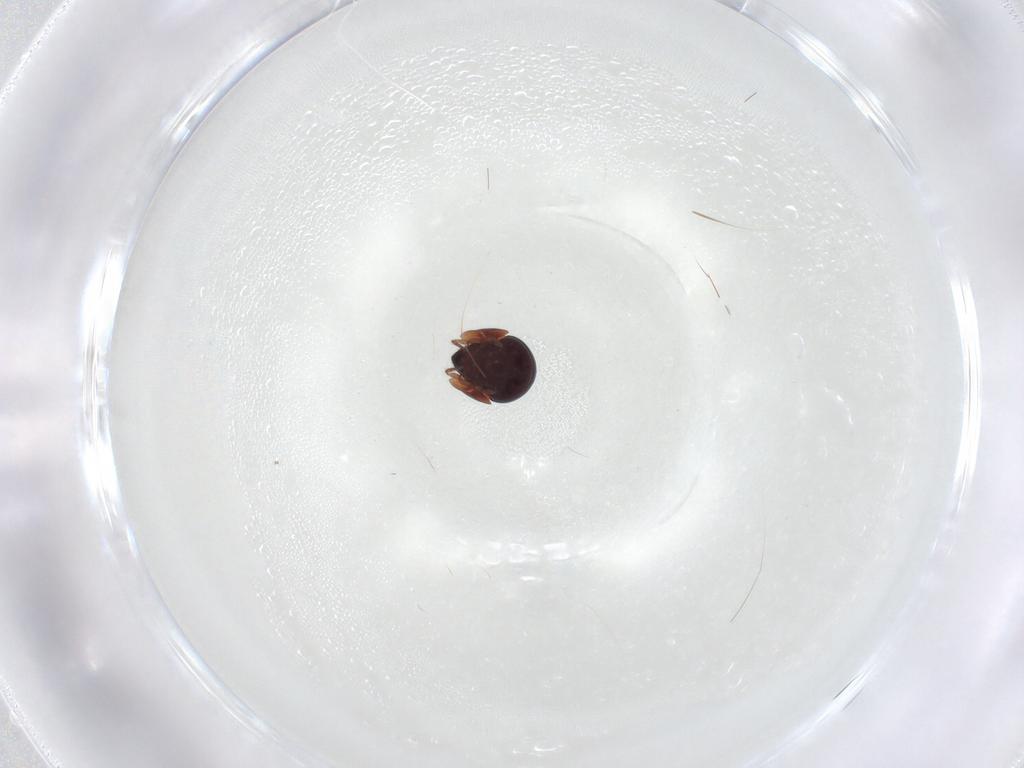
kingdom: Animalia
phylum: Arthropoda
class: Arachnida
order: Sarcoptiformes
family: Galumnidae
